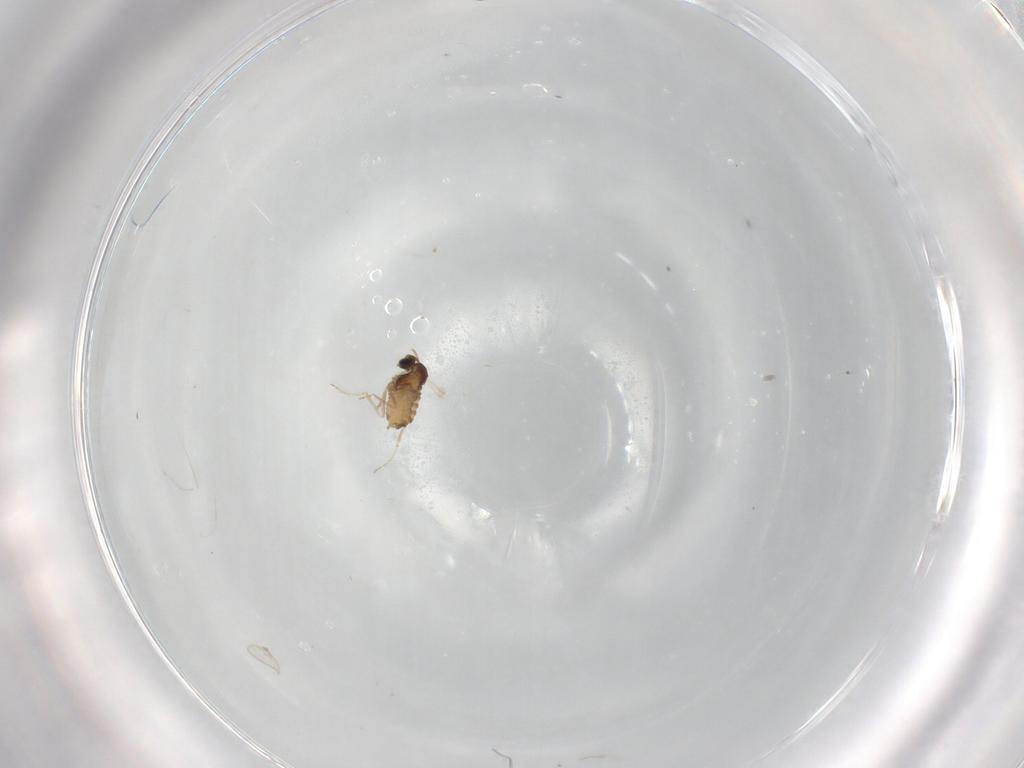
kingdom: Animalia
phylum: Arthropoda
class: Insecta
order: Diptera
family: Cecidomyiidae
